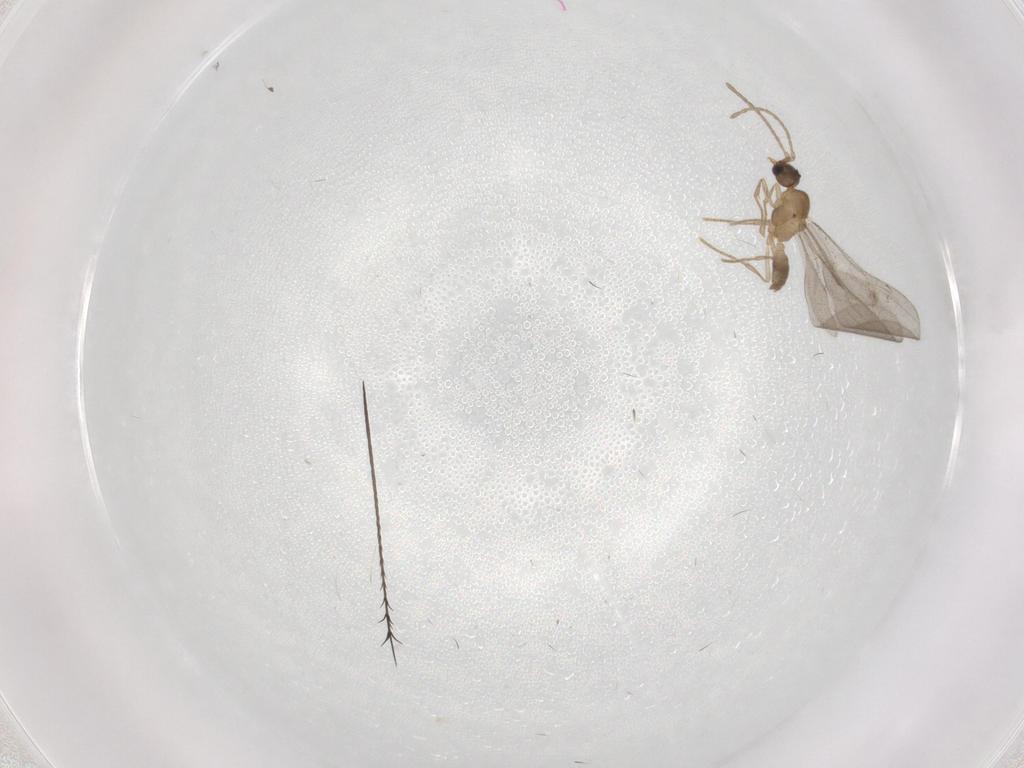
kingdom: Animalia
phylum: Arthropoda
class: Insecta
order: Hymenoptera
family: Formicidae
